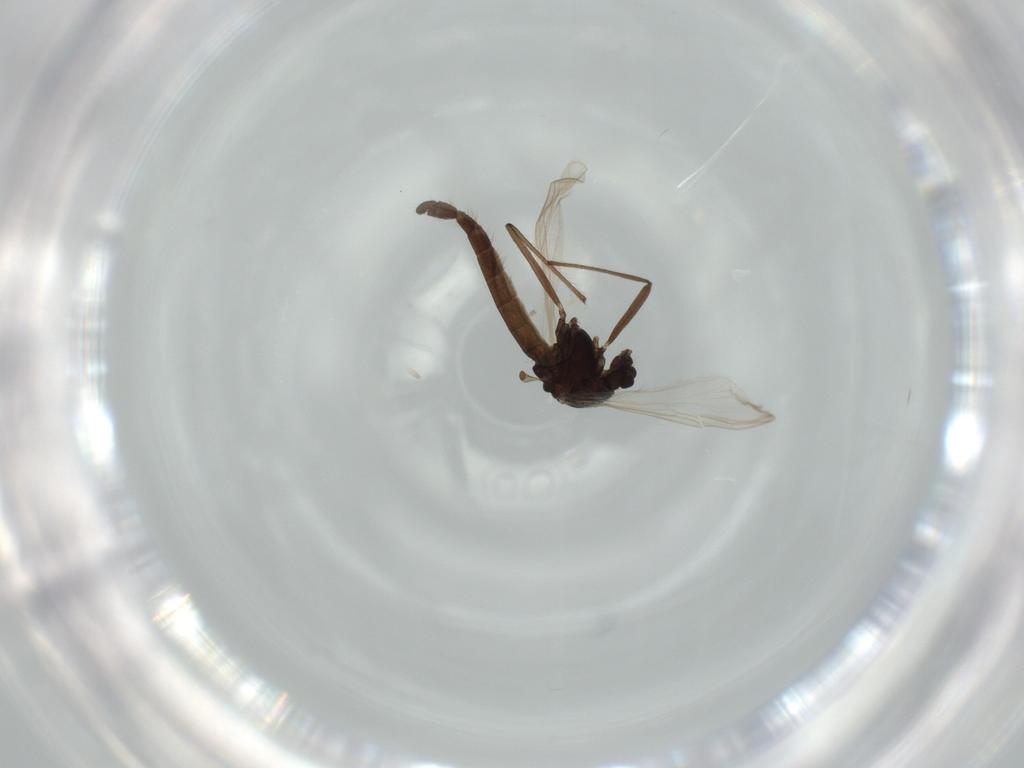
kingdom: Animalia
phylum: Arthropoda
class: Insecta
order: Diptera
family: Chironomidae
